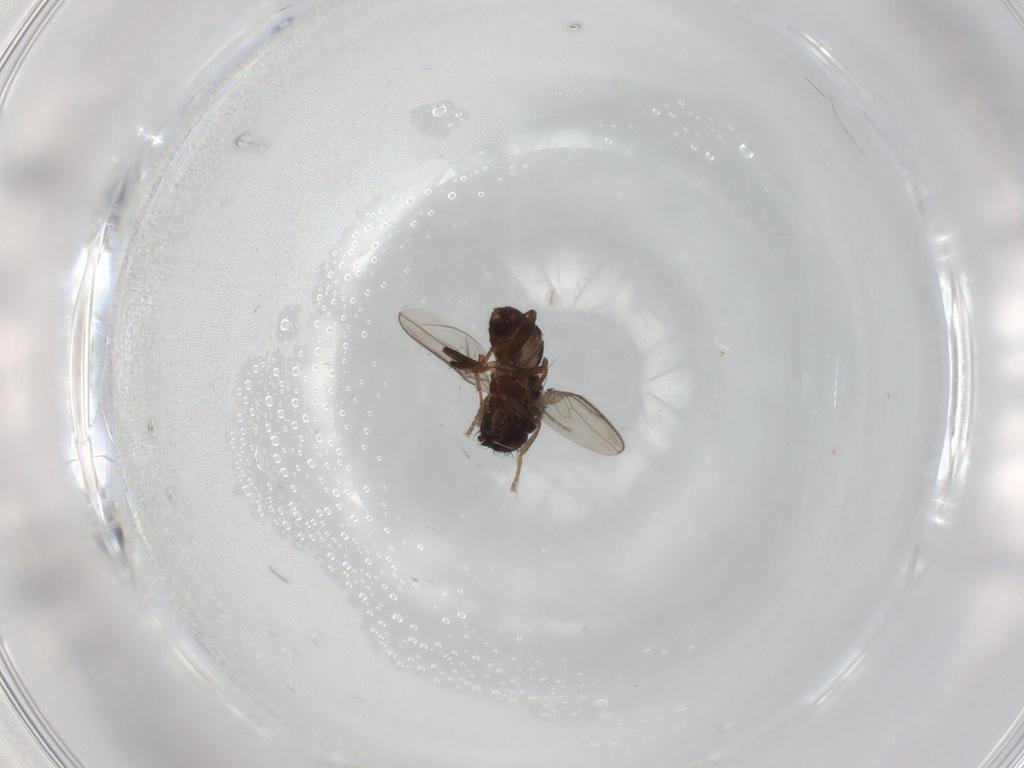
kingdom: Animalia
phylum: Arthropoda
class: Insecta
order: Diptera
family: Sphaeroceridae
